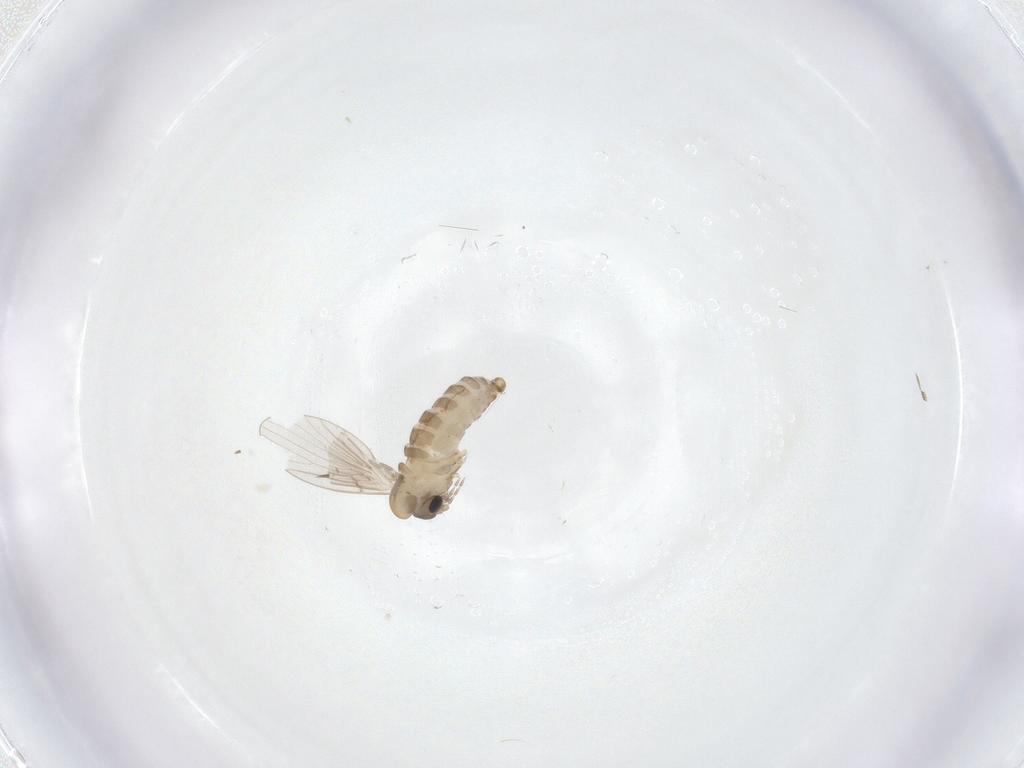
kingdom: Animalia
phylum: Arthropoda
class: Insecta
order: Diptera
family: Psychodidae
